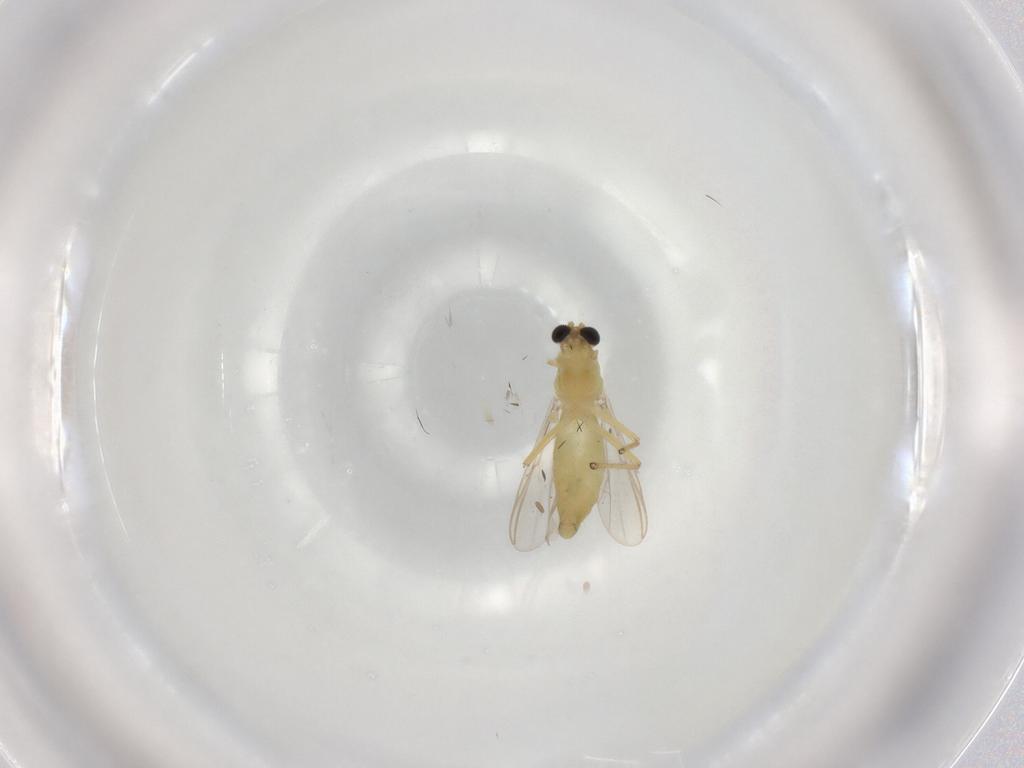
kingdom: Animalia
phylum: Arthropoda
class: Insecta
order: Diptera
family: Chironomidae
